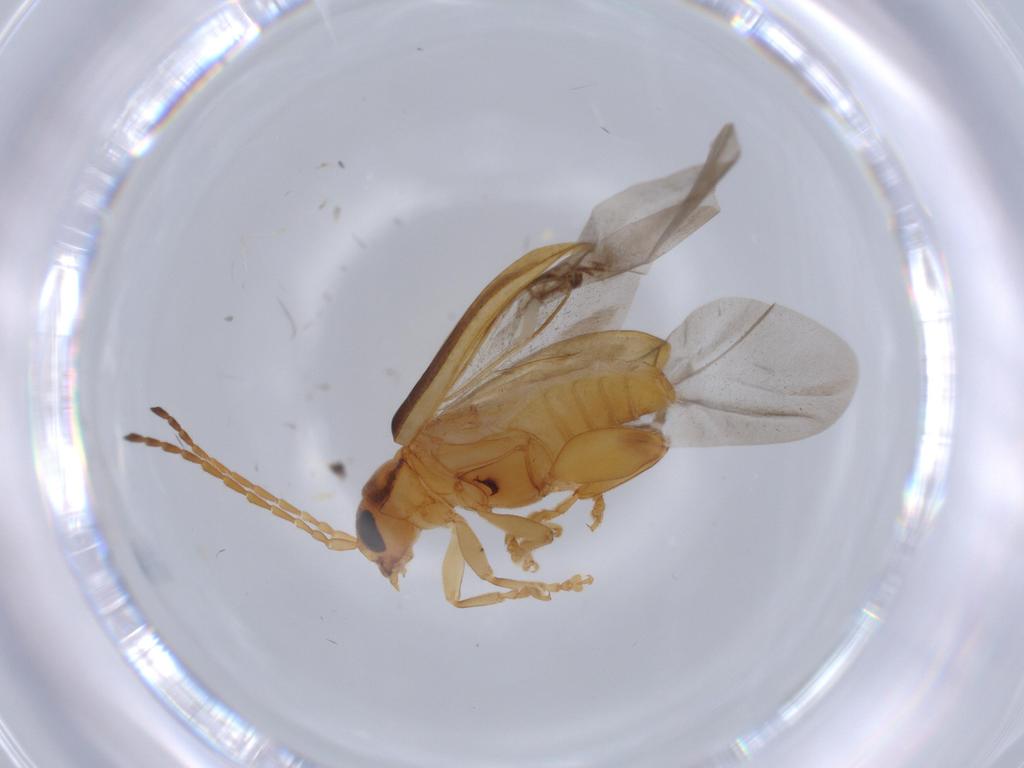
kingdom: Animalia
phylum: Arthropoda
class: Insecta
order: Coleoptera
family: Chrysomelidae
